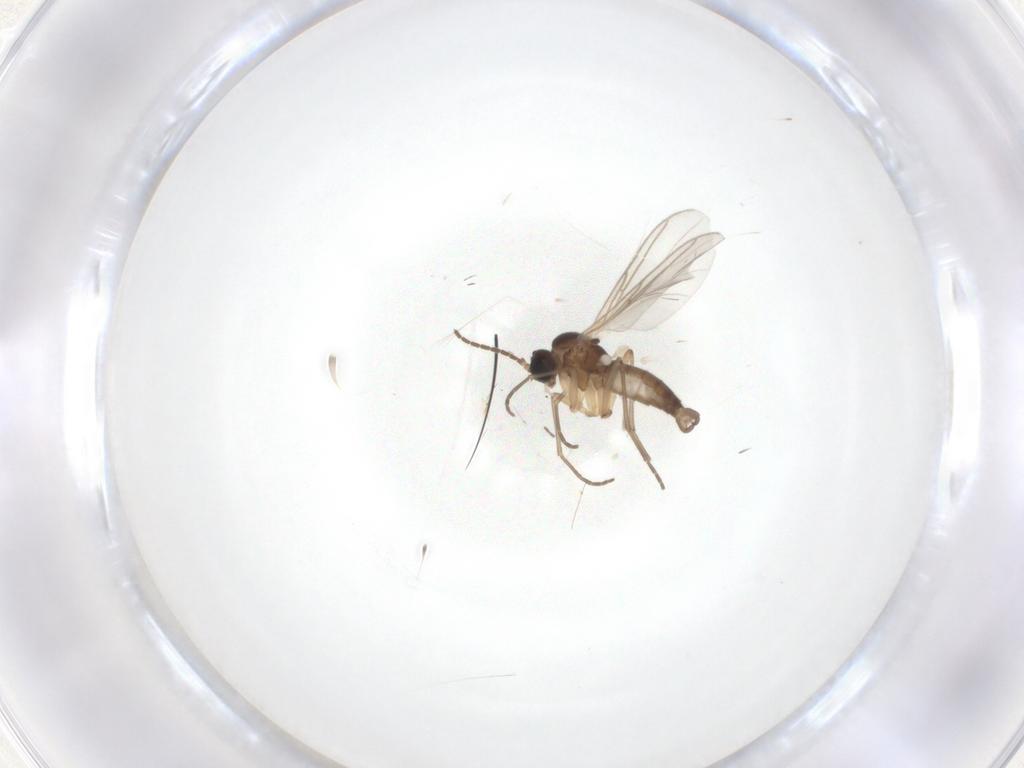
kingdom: Animalia
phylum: Arthropoda
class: Insecta
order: Diptera
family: Sciaridae
